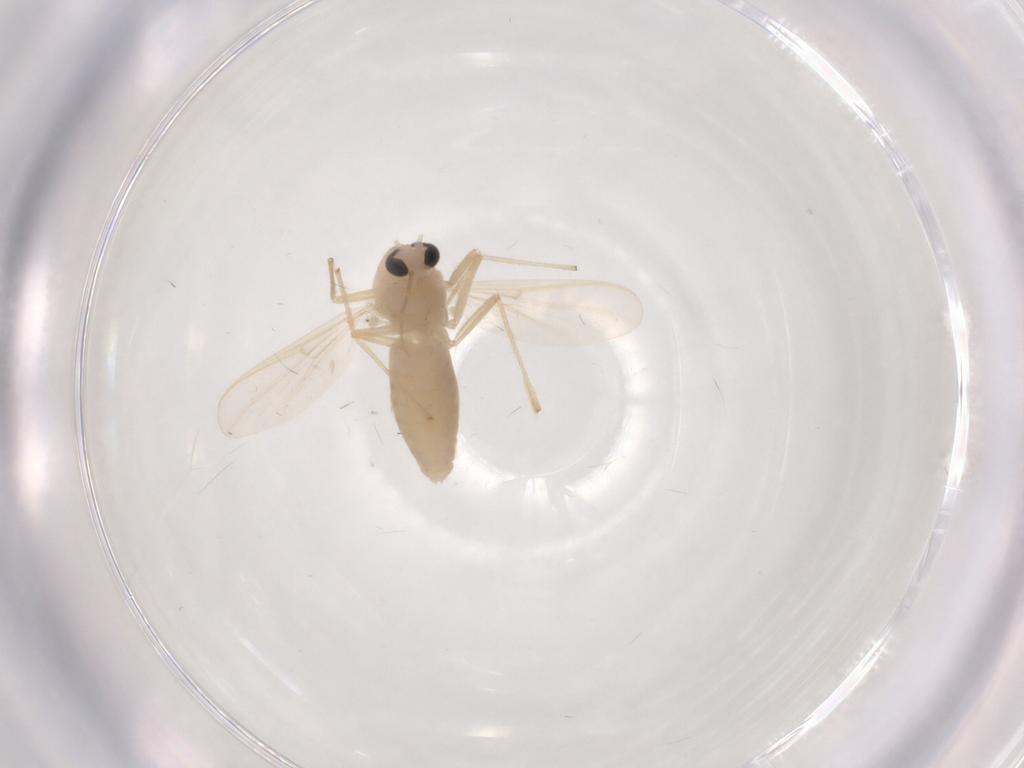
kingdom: Animalia
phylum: Arthropoda
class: Insecta
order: Diptera
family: Chironomidae
